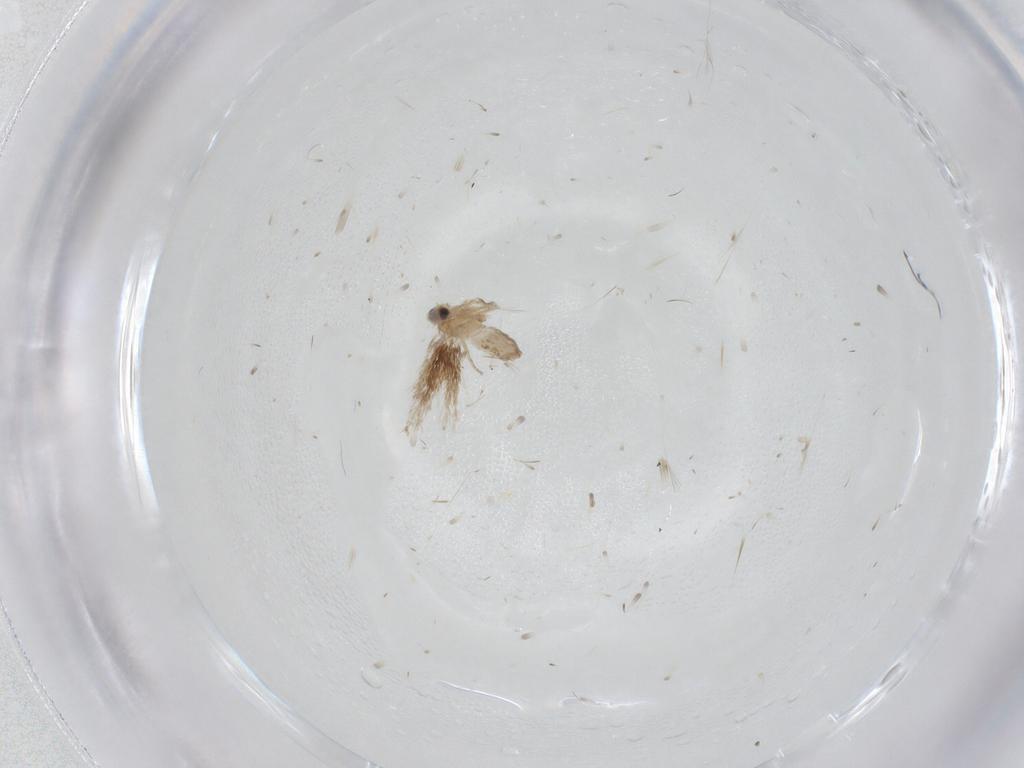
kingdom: Animalia
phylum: Arthropoda
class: Insecta
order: Lepidoptera
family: Nepticulidae
